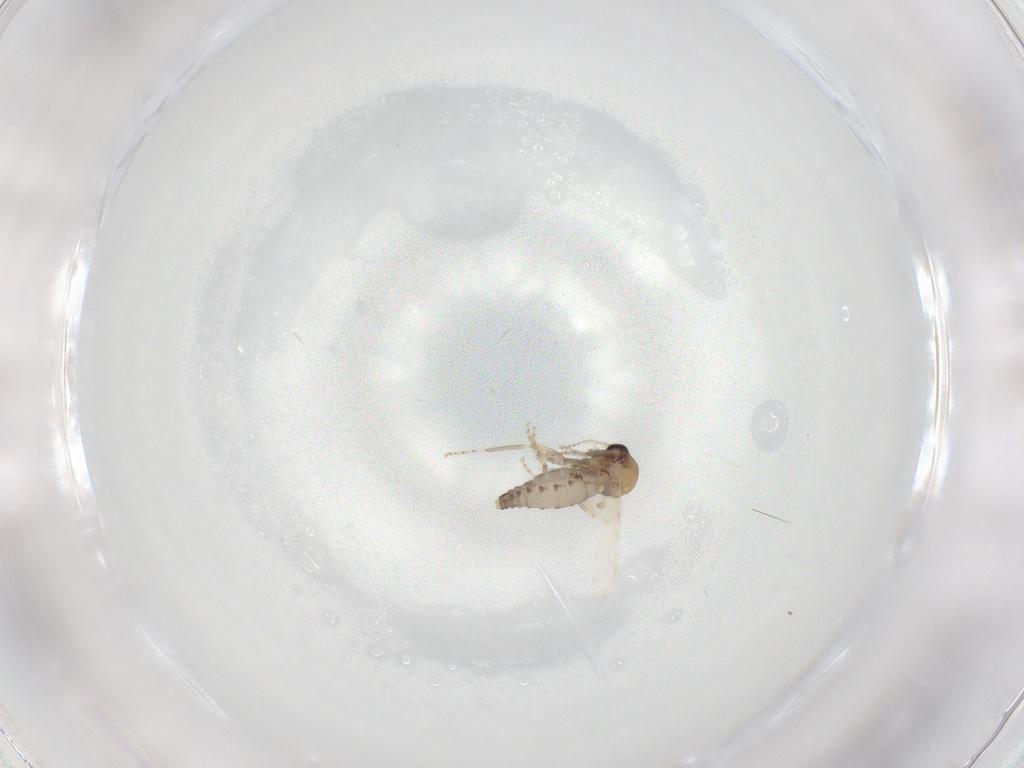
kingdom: Animalia
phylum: Arthropoda
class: Insecta
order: Diptera
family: Ceratopogonidae
